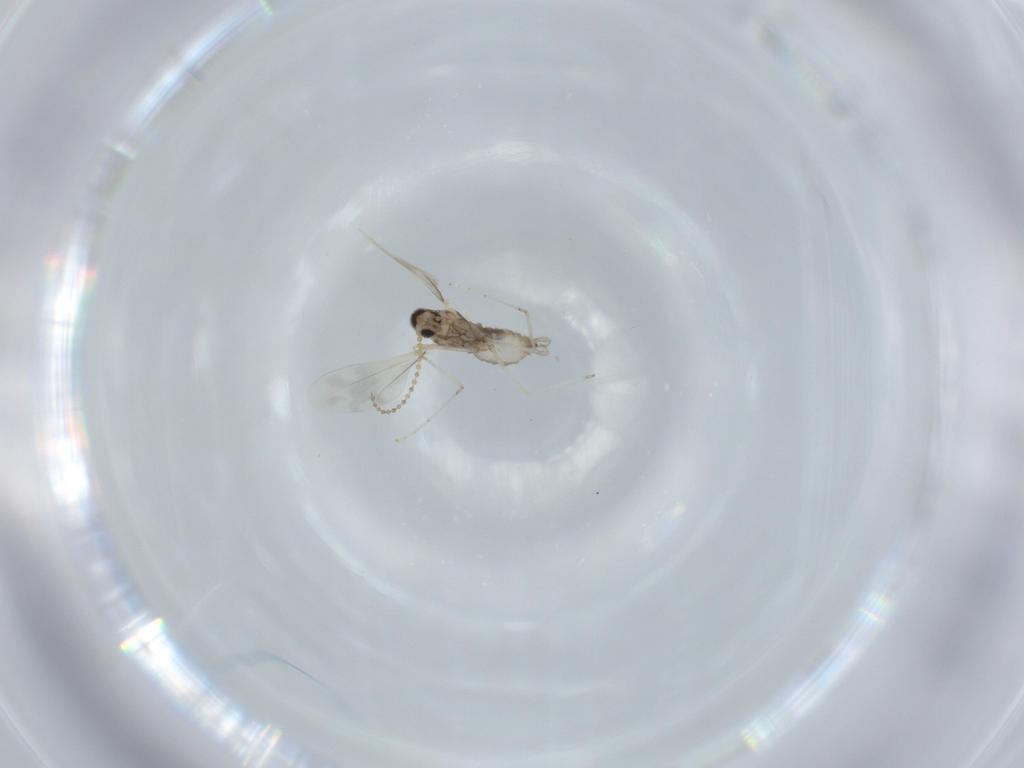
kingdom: Animalia
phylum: Arthropoda
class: Insecta
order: Diptera
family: Cecidomyiidae
